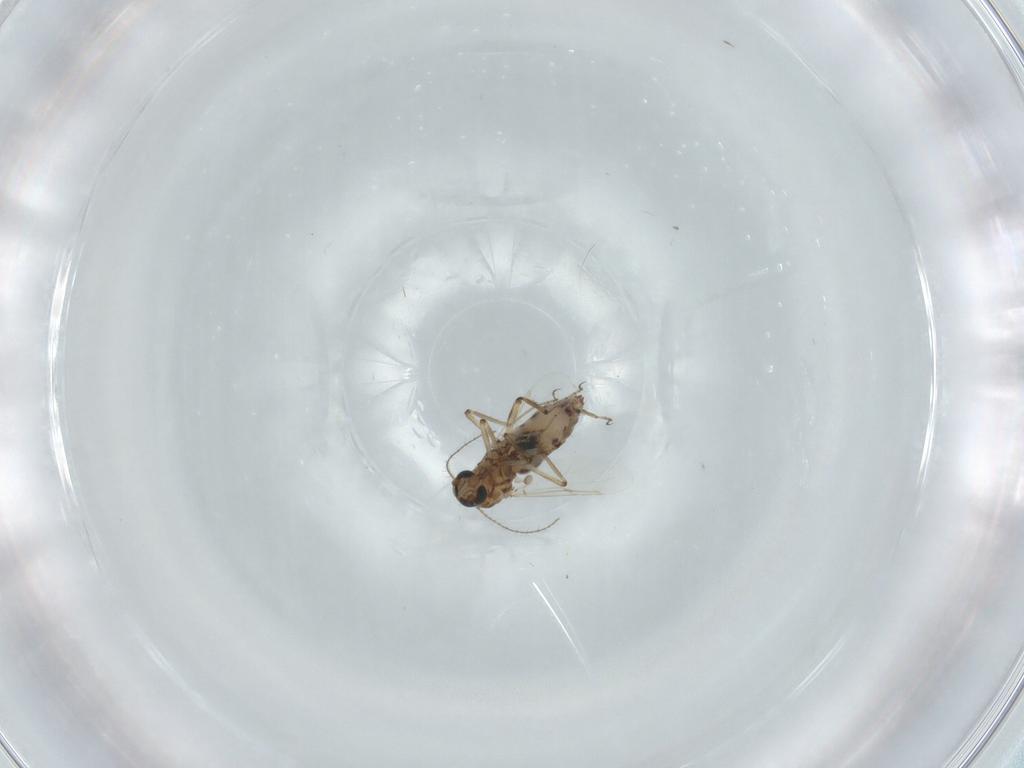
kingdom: Animalia
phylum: Arthropoda
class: Insecta
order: Diptera
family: Ceratopogonidae
